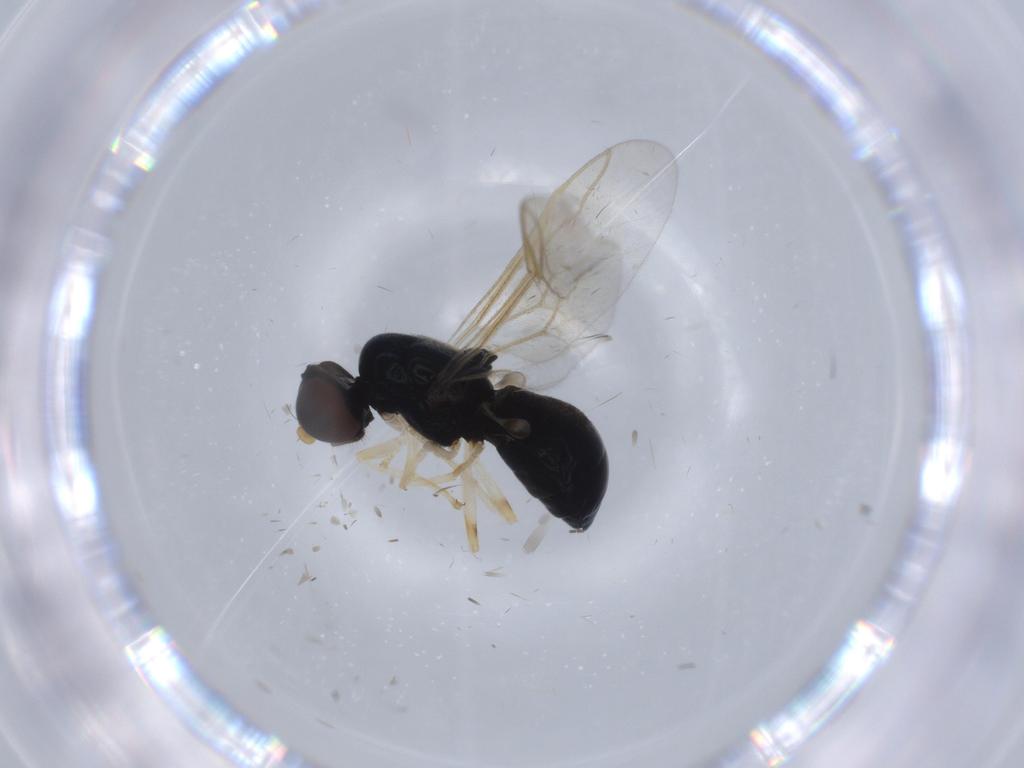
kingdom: Animalia
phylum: Arthropoda
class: Insecta
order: Diptera
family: Stratiomyidae
